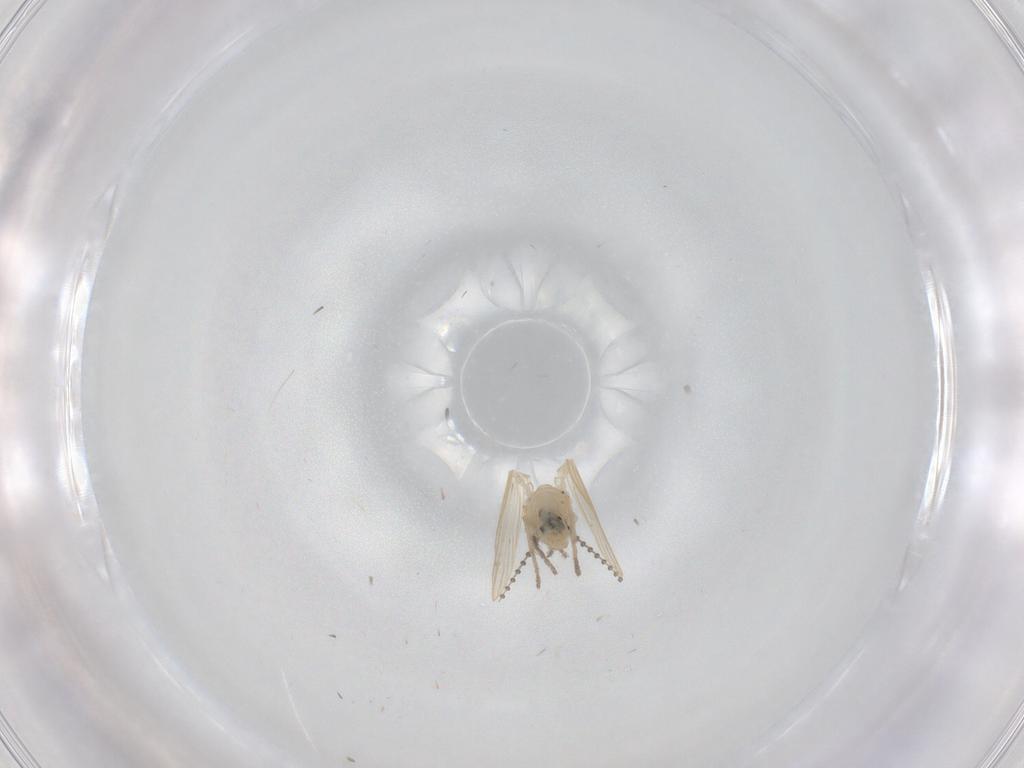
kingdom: Animalia
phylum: Arthropoda
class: Insecta
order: Diptera
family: Psychodidae
